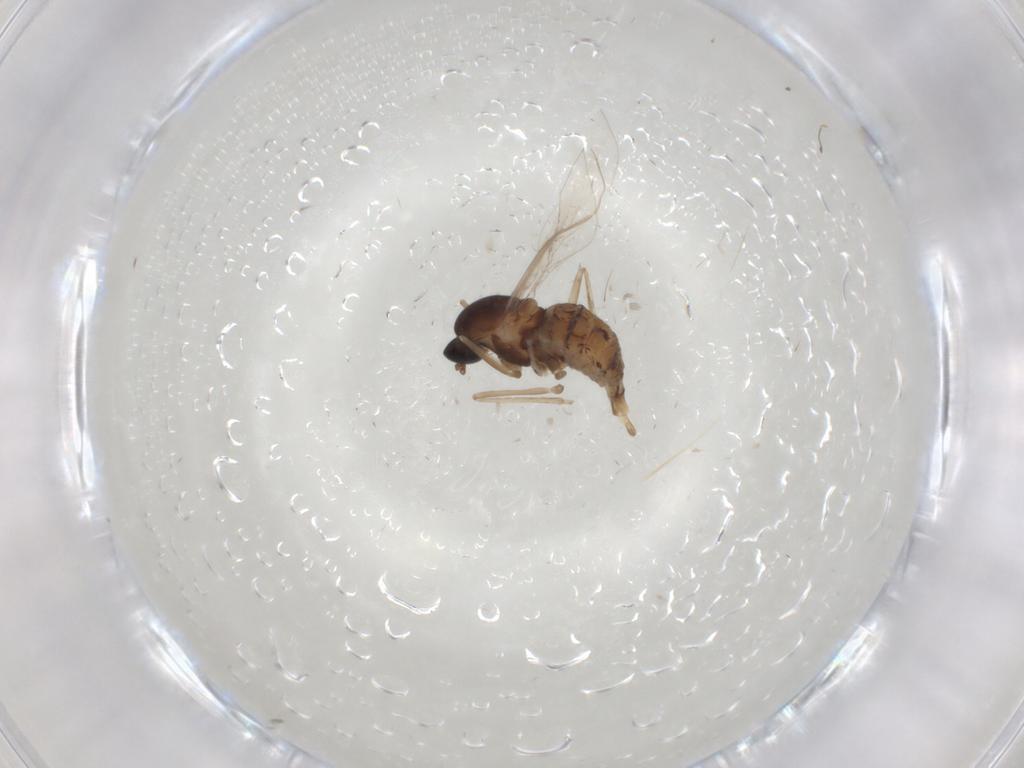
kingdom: Animalia
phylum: Arthropoda
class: Insecta
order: Diptera
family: Cecidomyiidae
